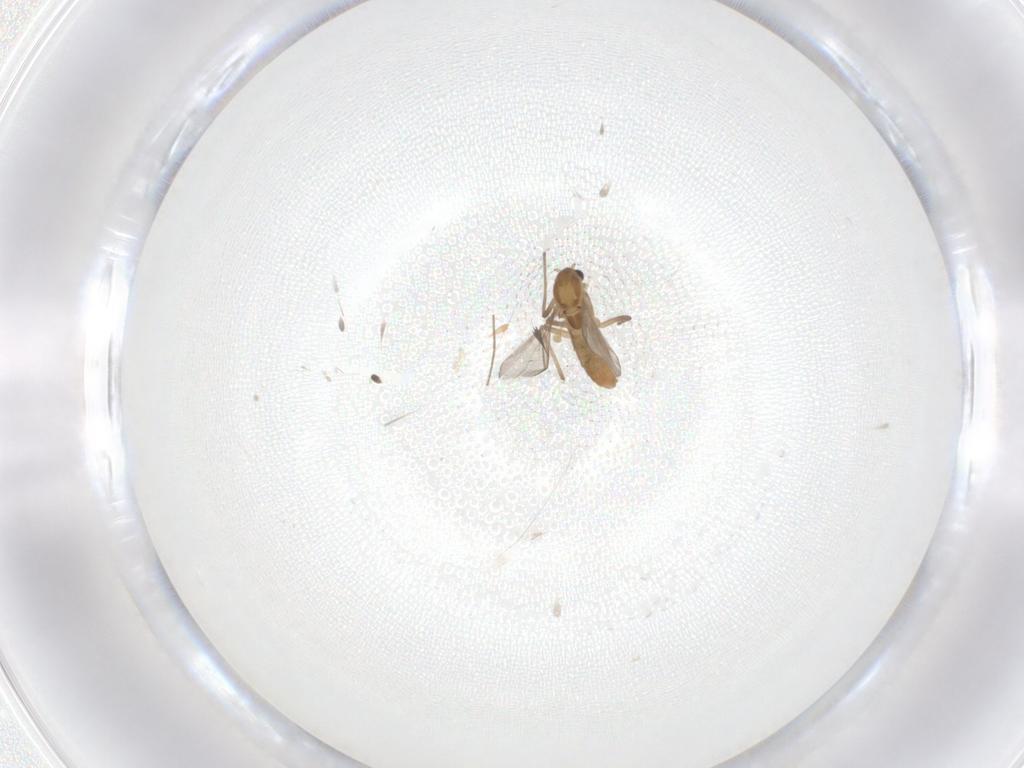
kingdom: Animalia
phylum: Arthropoda
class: Insecta
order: Diptera
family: Chironomidae
